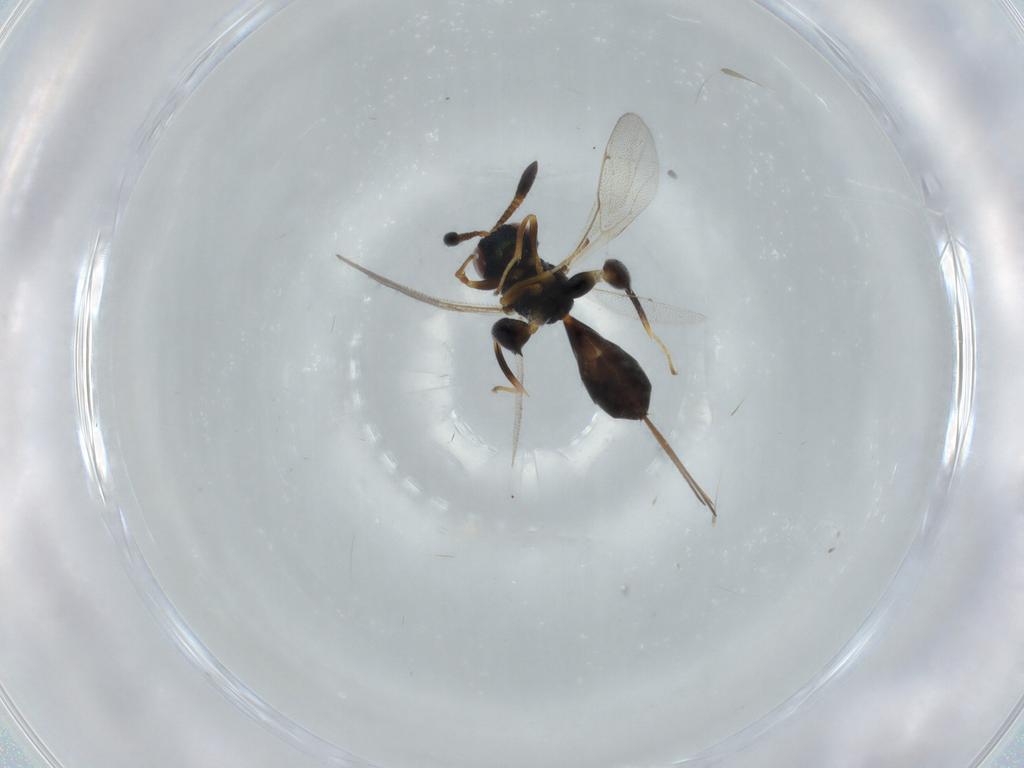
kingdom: Animalia
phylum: Arthropoda
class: Insecta
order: Hymenoptera
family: Torymidae
